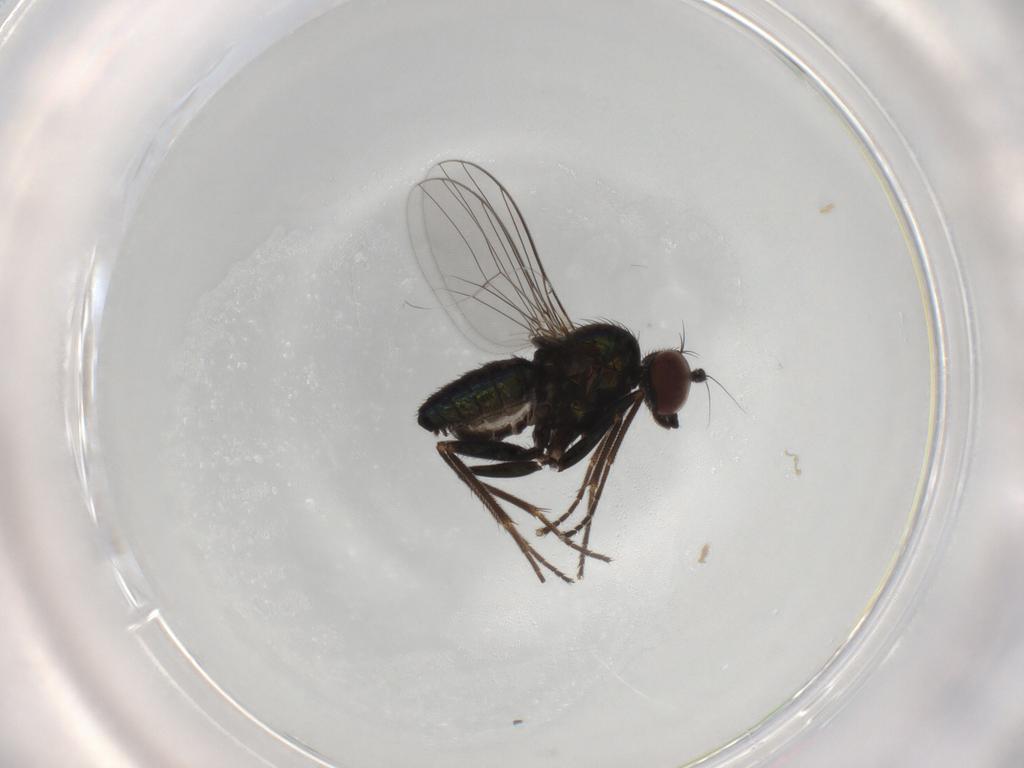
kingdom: Animalia
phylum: Arthropoda
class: Insecta
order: Diptera
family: Dolichopodidae
